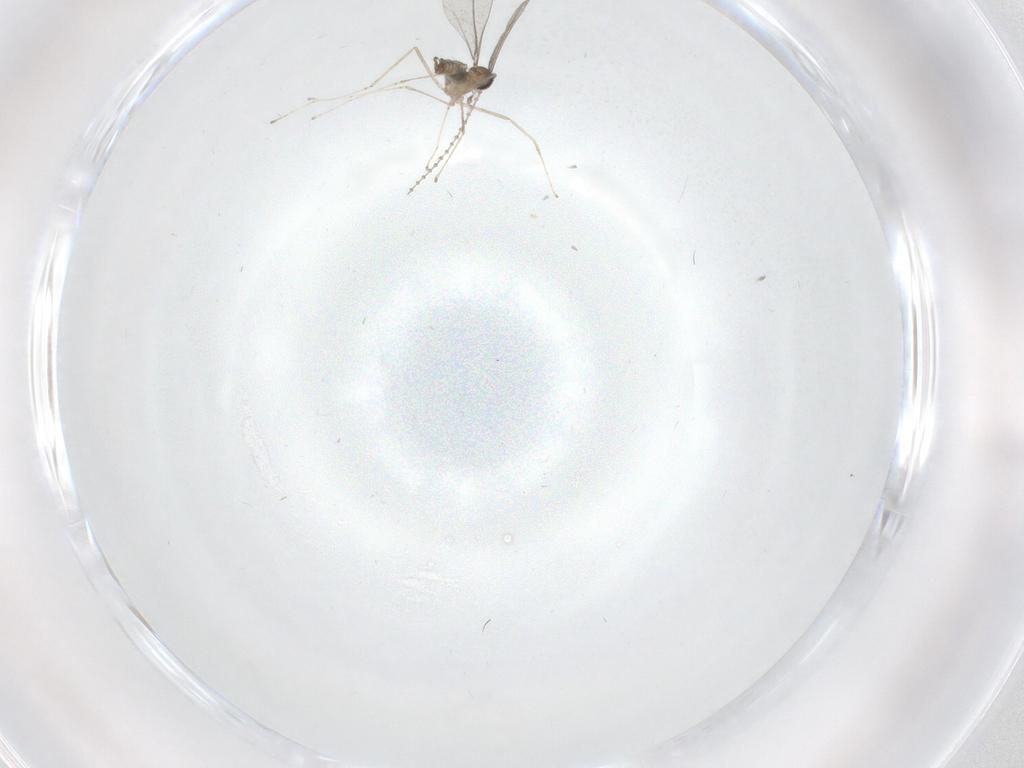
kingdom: Animalia
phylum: Arthropoda
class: Insecta
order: Diptera
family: Cecidomyiidae
